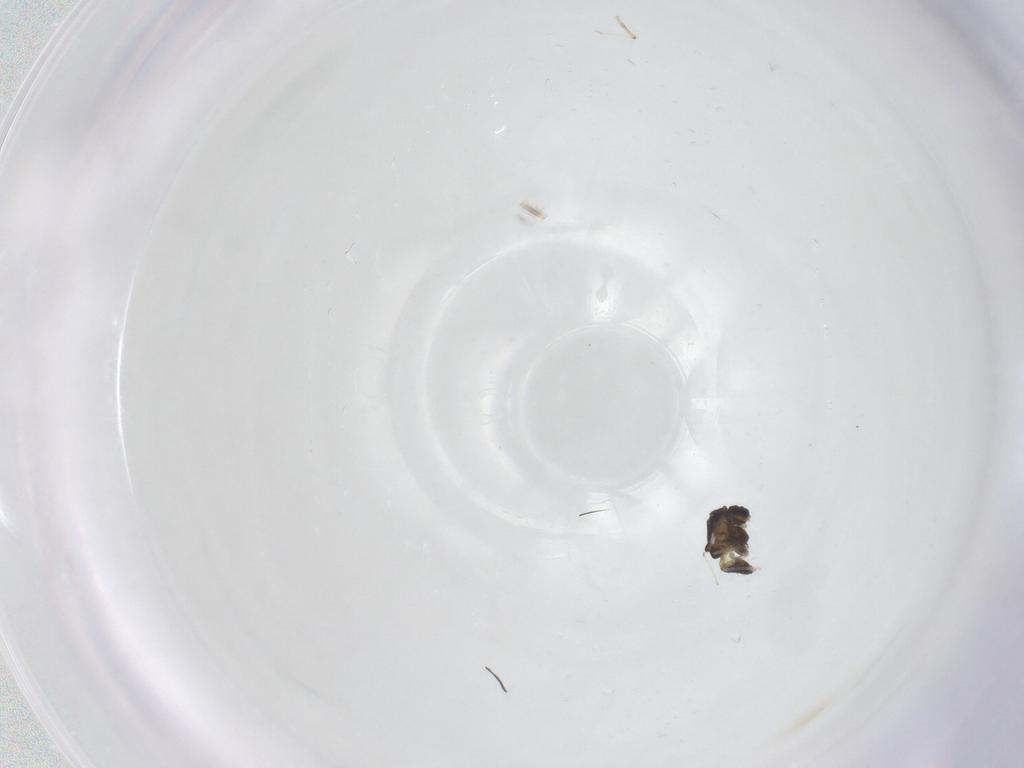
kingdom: Animalia
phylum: Arthropoda
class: Insecta
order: Diptera
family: Chironomidae
